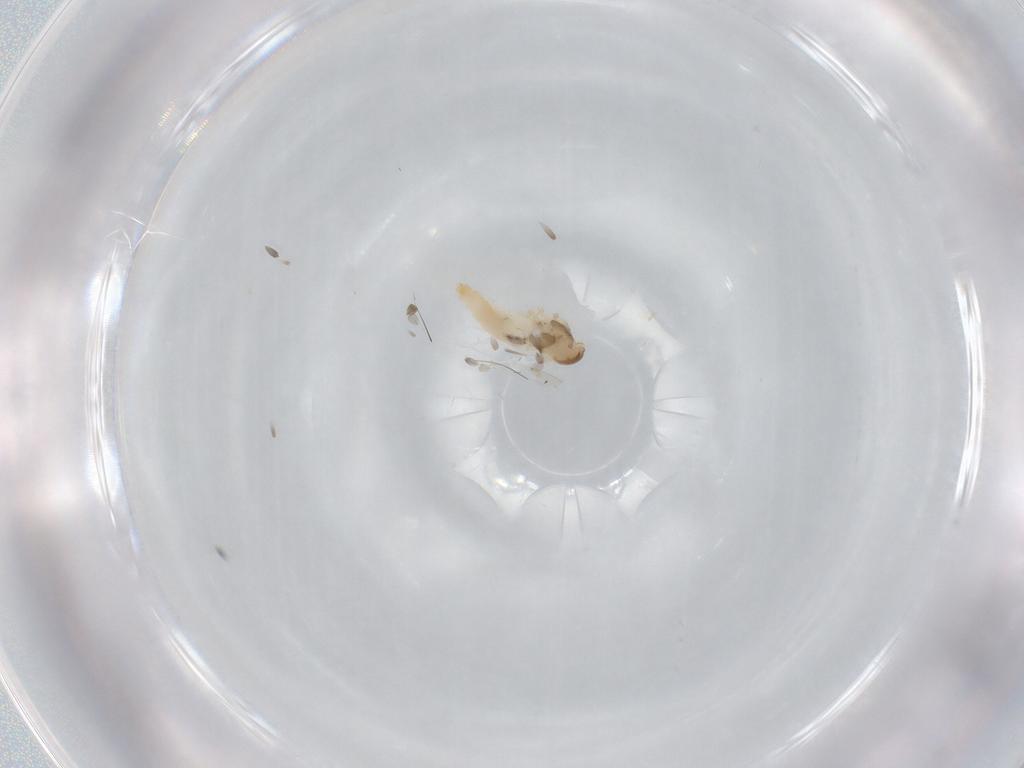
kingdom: Animalia
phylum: Arthropoda
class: Insecta
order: Diptera
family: Cecidomyiidae
